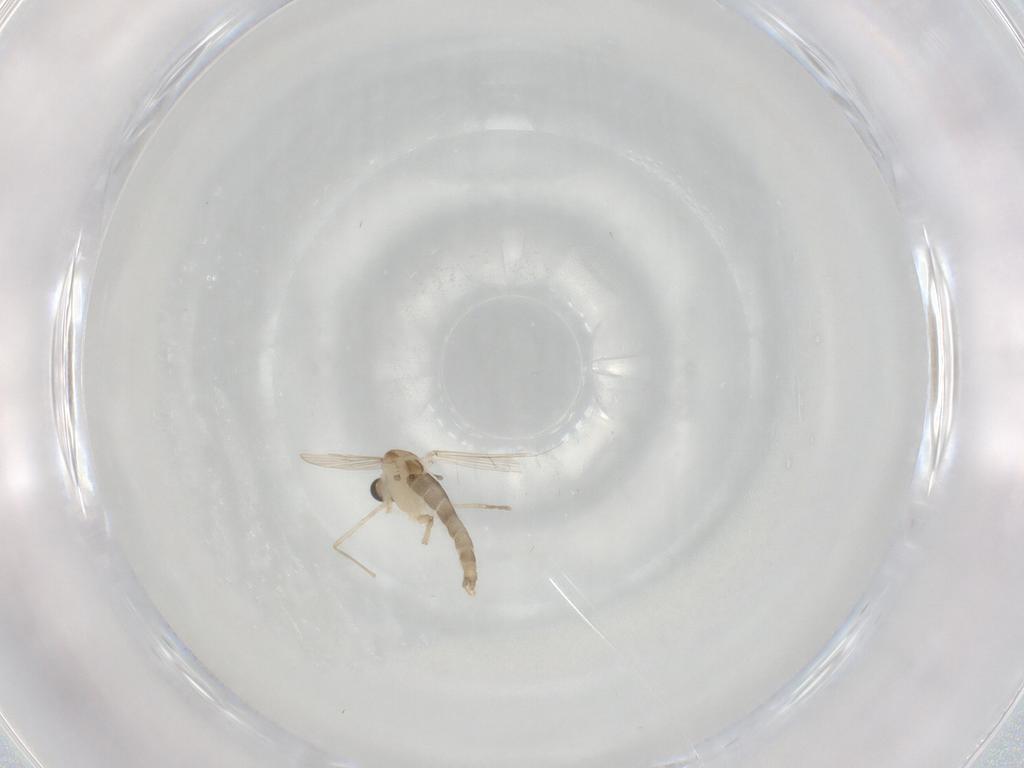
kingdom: Animalia
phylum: Arthropoda
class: Insecta
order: Diptera
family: Chironomidae
